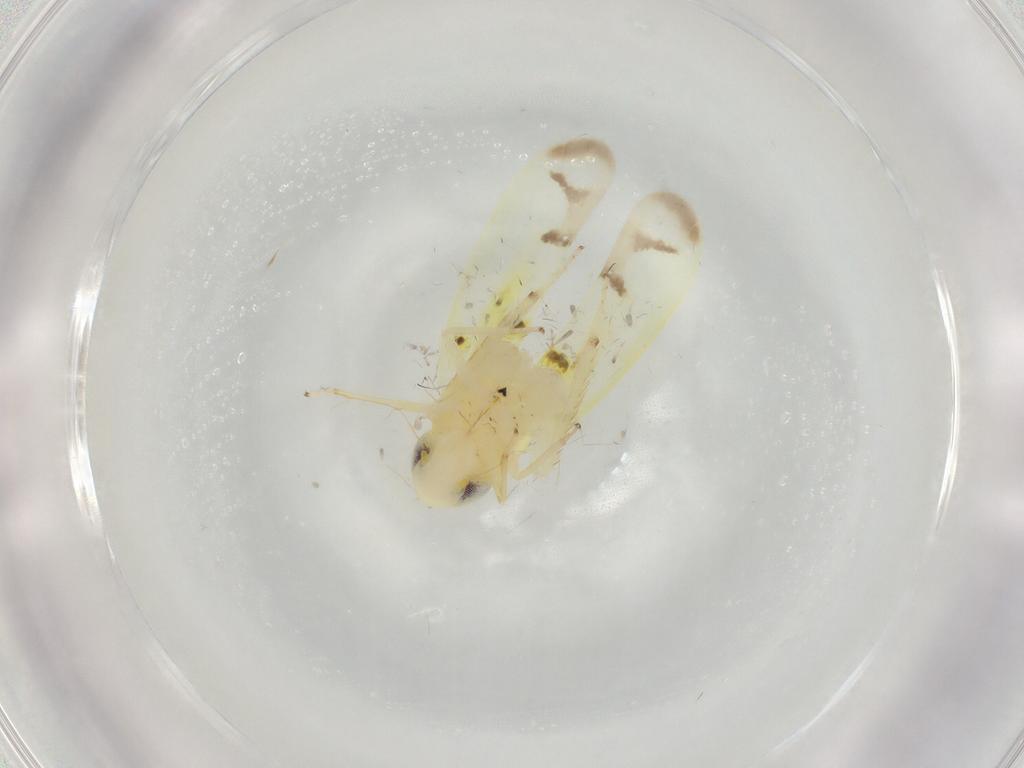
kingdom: Animalia
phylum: Arthropoda
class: Insecta
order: Hemiptera
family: Cicadellidae
